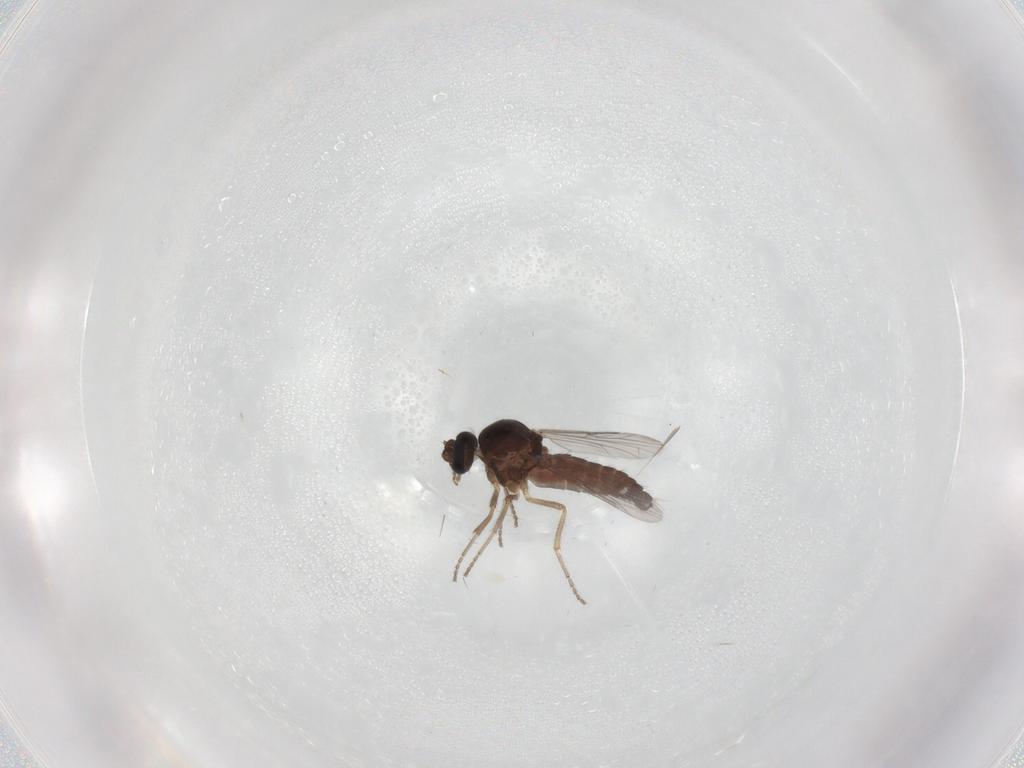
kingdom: Animalia
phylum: Arthropoda
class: Insecta
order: Diptera
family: Ceratopogonidae
